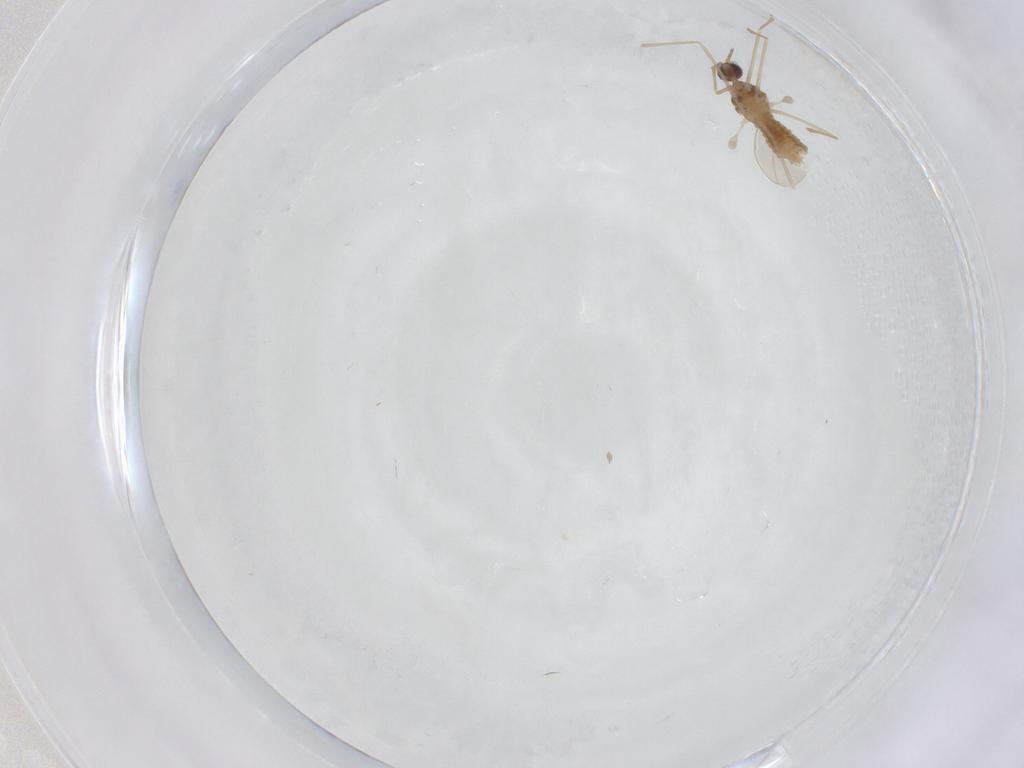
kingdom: Animalia
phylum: Arthropoda
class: Insecta
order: Diptera
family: Cecidomyiidae
